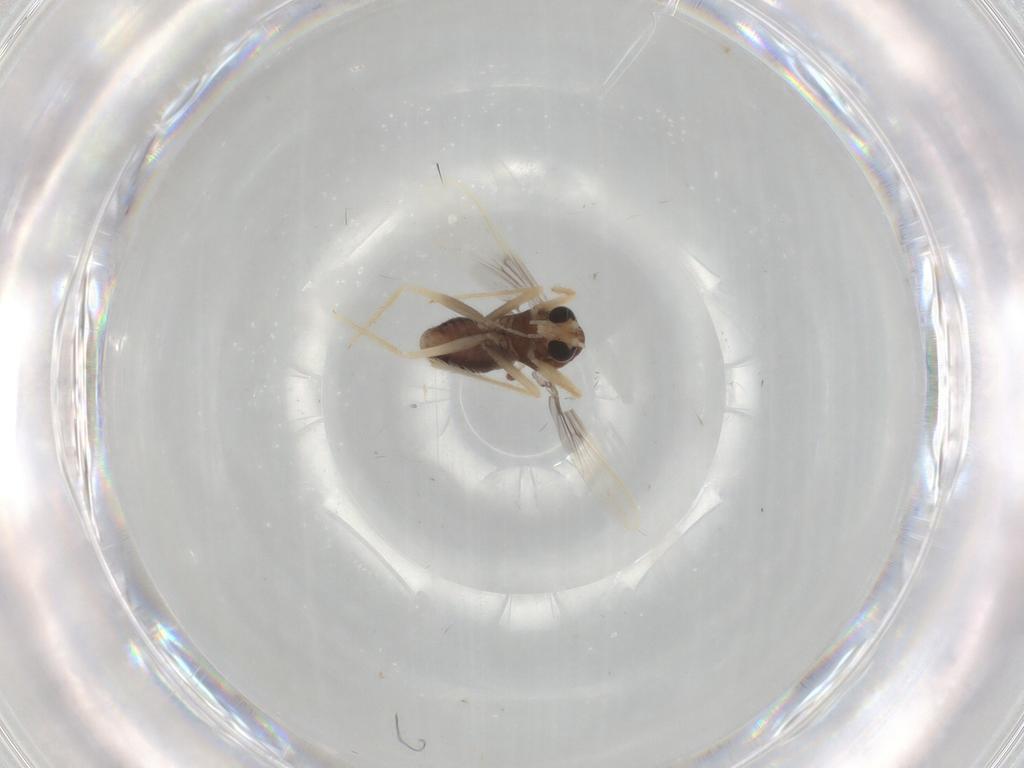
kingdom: Animalia
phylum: Arthropoda
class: Insecta
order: Diptera
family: Chironomidae
